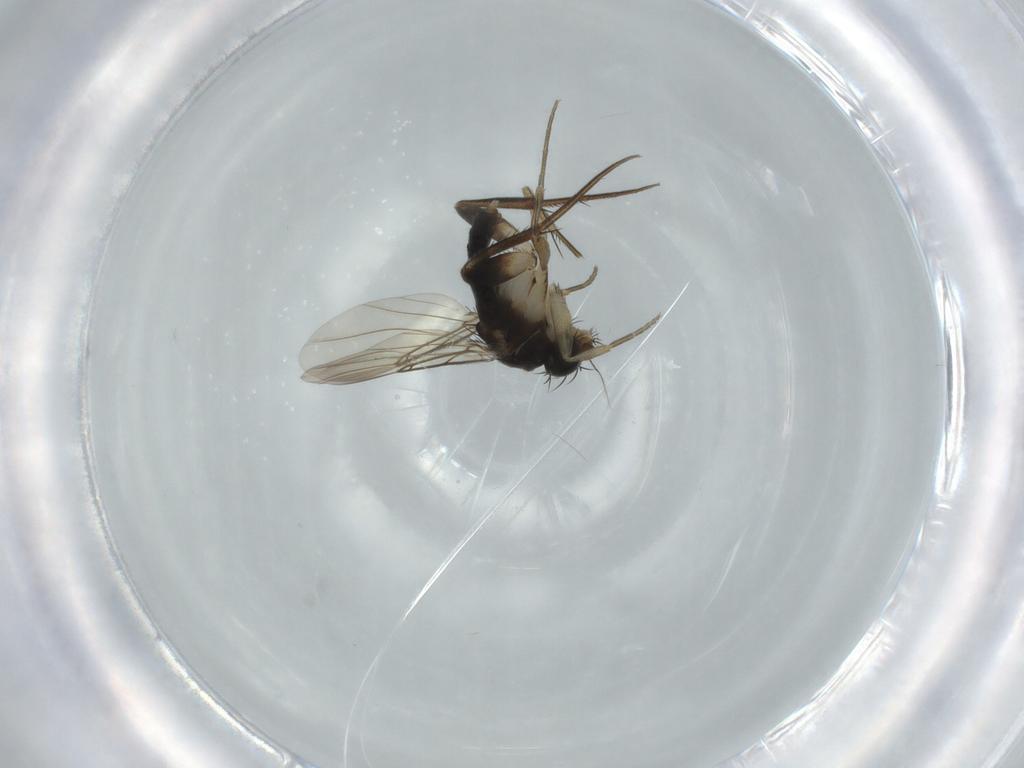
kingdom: Animalia
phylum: Arthropoda
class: Insecta
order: Diptera
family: Phoridae
